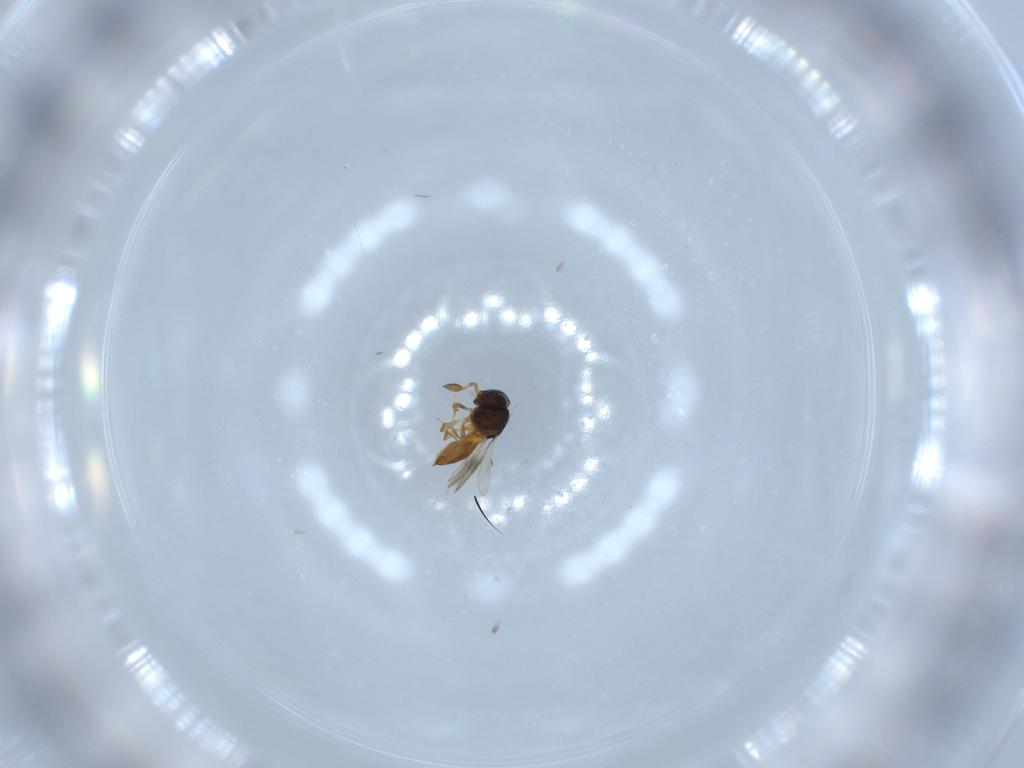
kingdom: Animalia
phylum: Arthropoda
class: Insecta
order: Hymenoptera
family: Scelionidae
